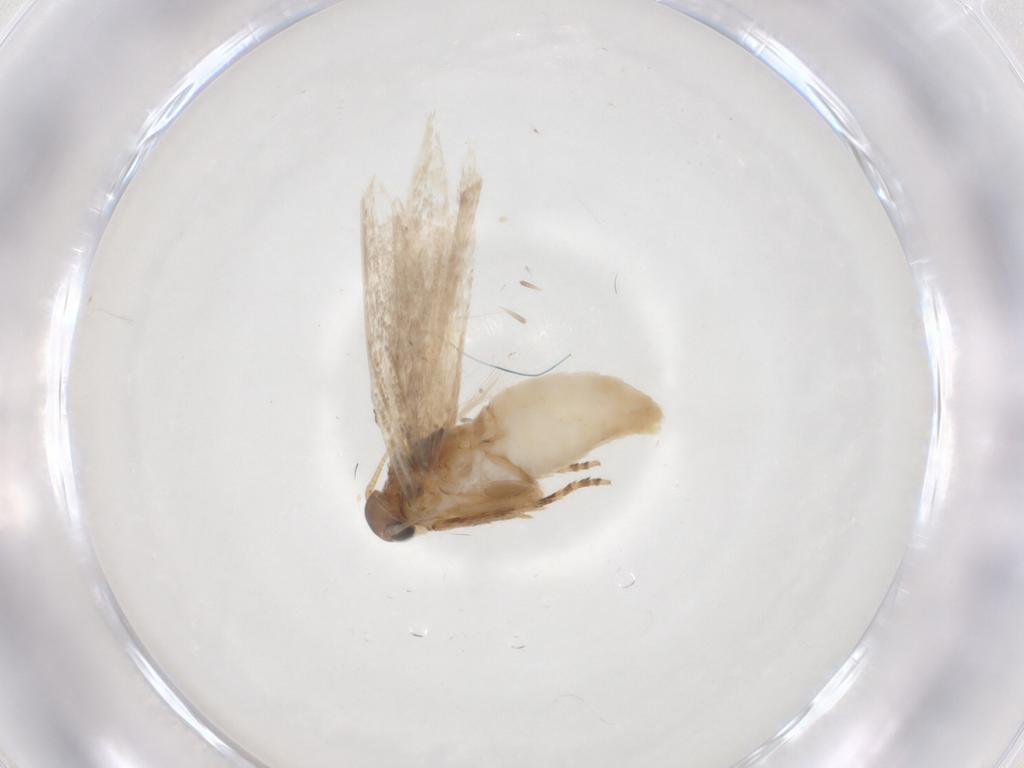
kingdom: Animalia
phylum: Arthropoda
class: Insecta
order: Lepidoptera
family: Gelechiidae
